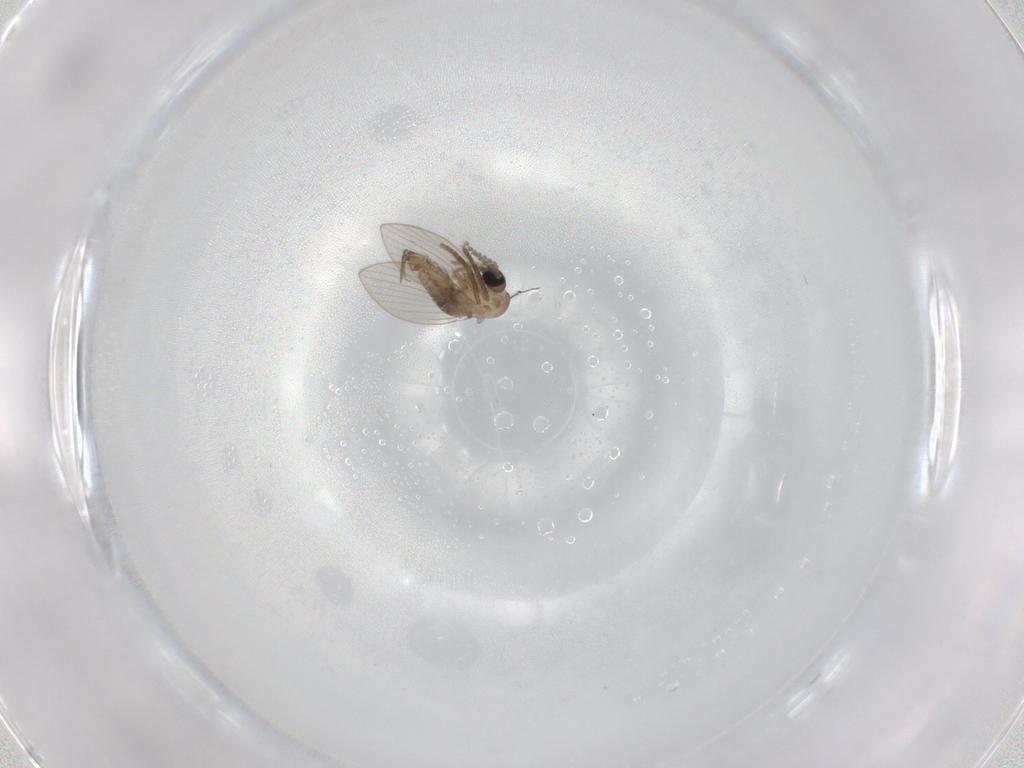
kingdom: Animalia
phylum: Arthropoda
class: Insecta
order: Diptera
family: Psychodidae
